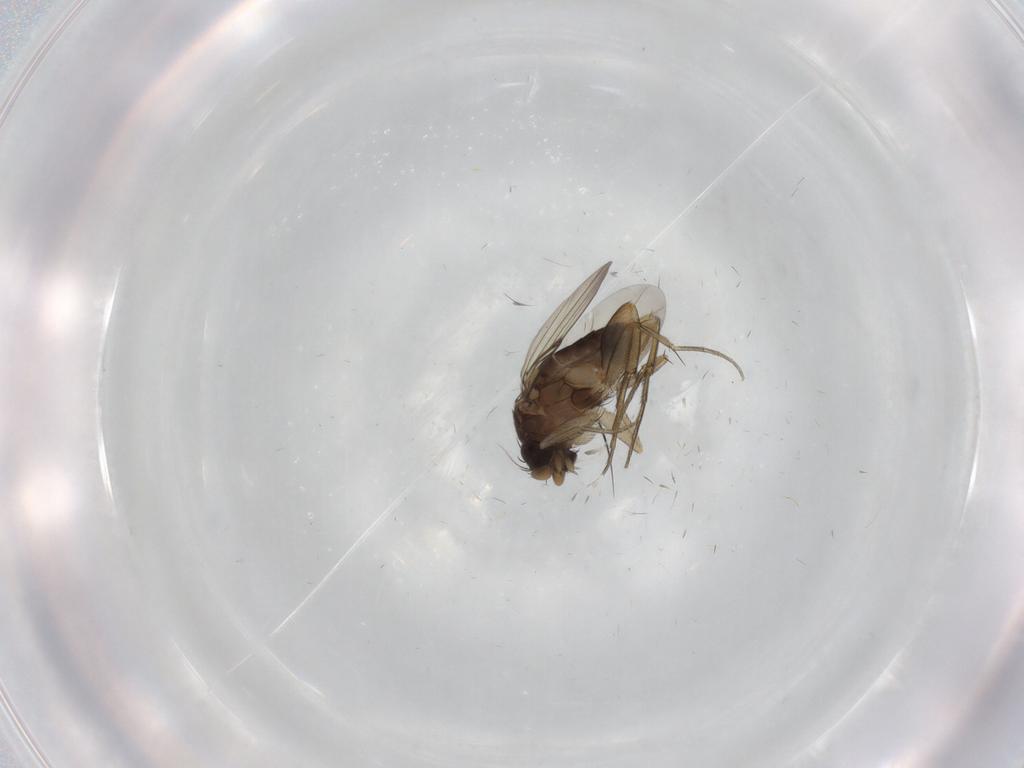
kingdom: Animalia
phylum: Arthropoda
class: Insecta
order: Diptera
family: Phoridae
